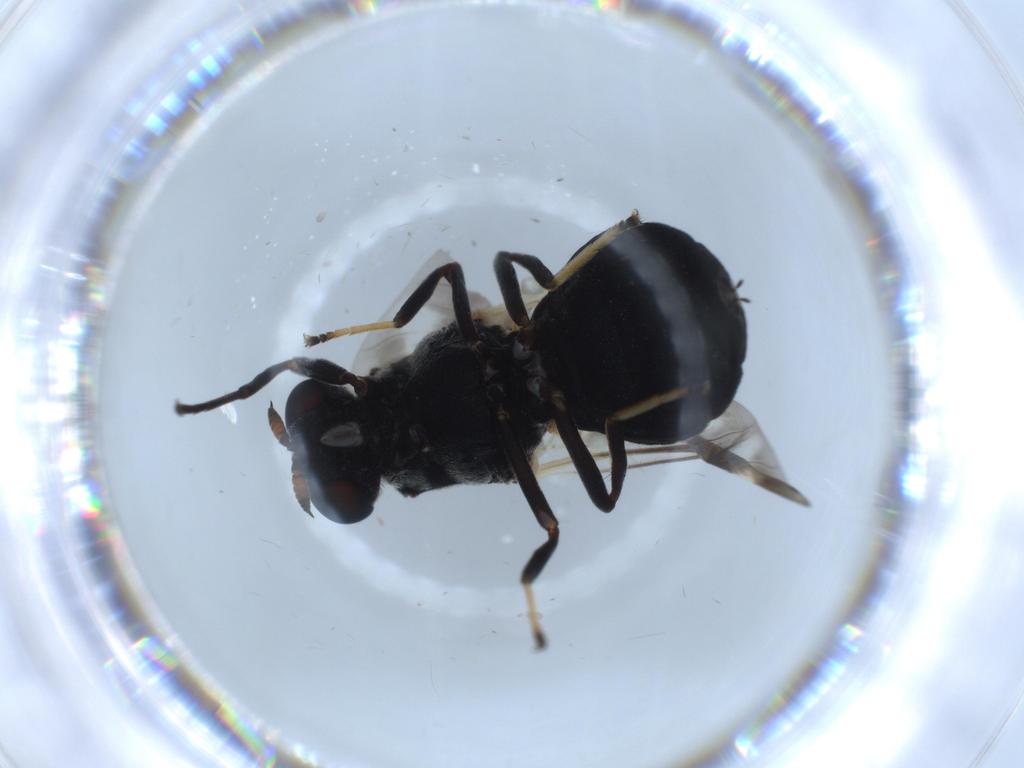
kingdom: Animalia
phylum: Arthropoda
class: Insecta
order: Diptera
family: Stratiomyidae
